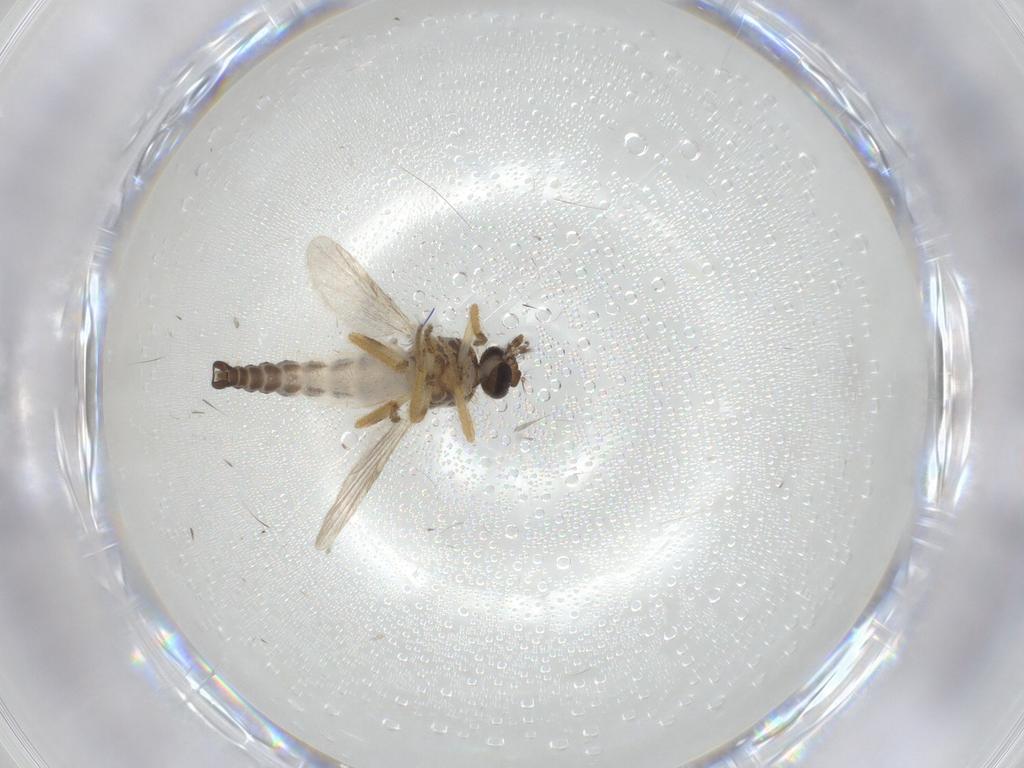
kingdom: Animalia
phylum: Arthropoda
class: Insecta
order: Diptera
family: Ceratopogonidae
